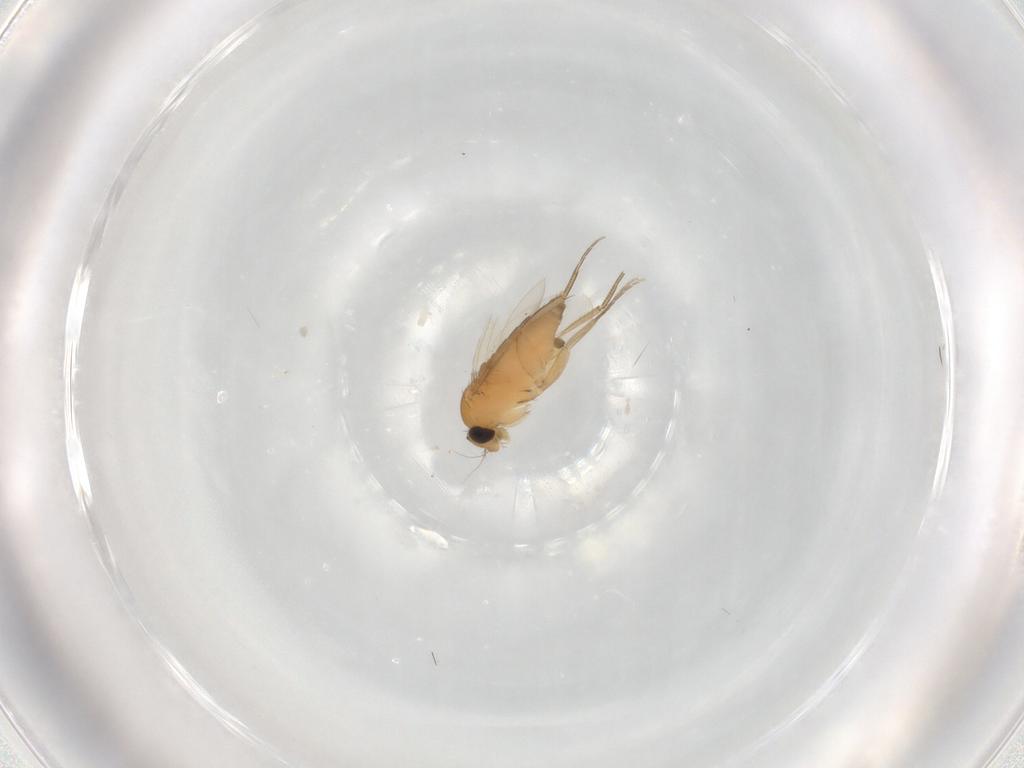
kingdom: Animalia
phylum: Arthropoda
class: Insecta
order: Diptera
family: Phoridae
